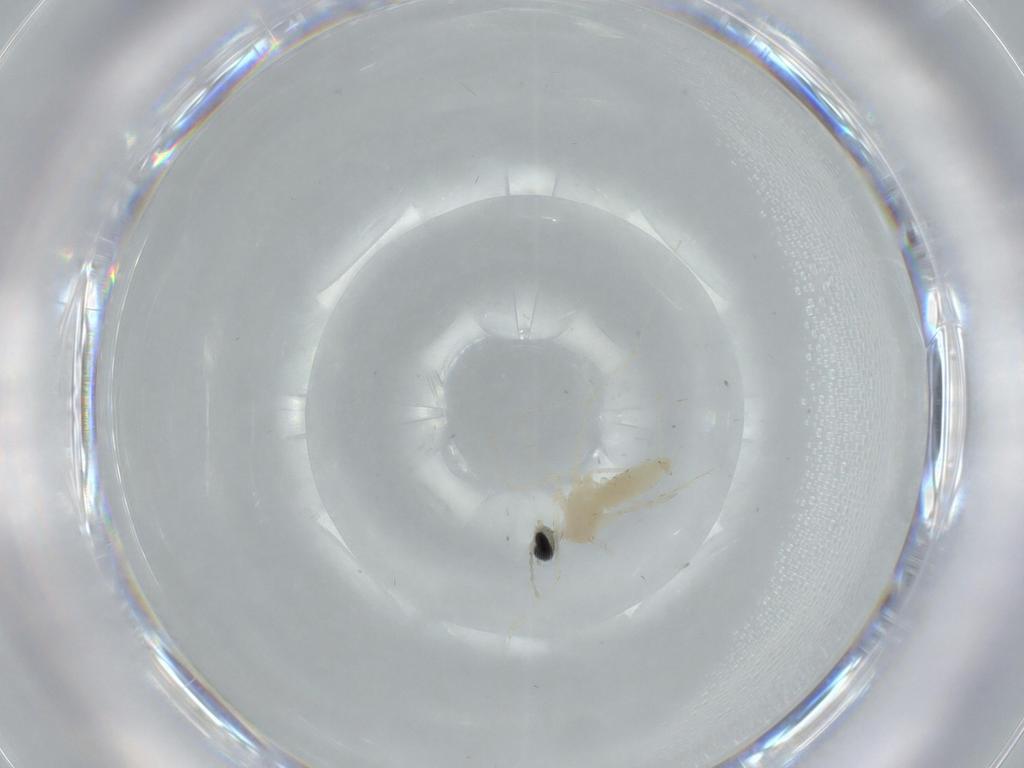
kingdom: Animalia
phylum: Arthropoda
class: Insecta
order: Diptera
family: Cecidomyiidae
